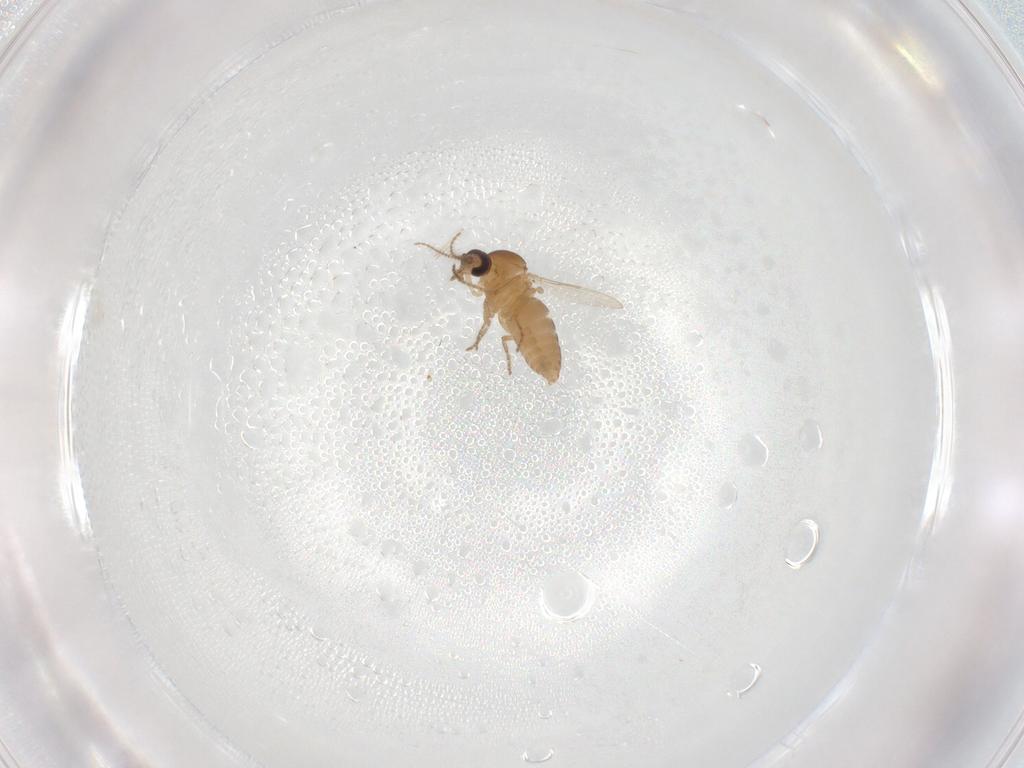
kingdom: Animalia
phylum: Arthropoda
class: Insecta
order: Diptera
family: Ceratopogonidae
